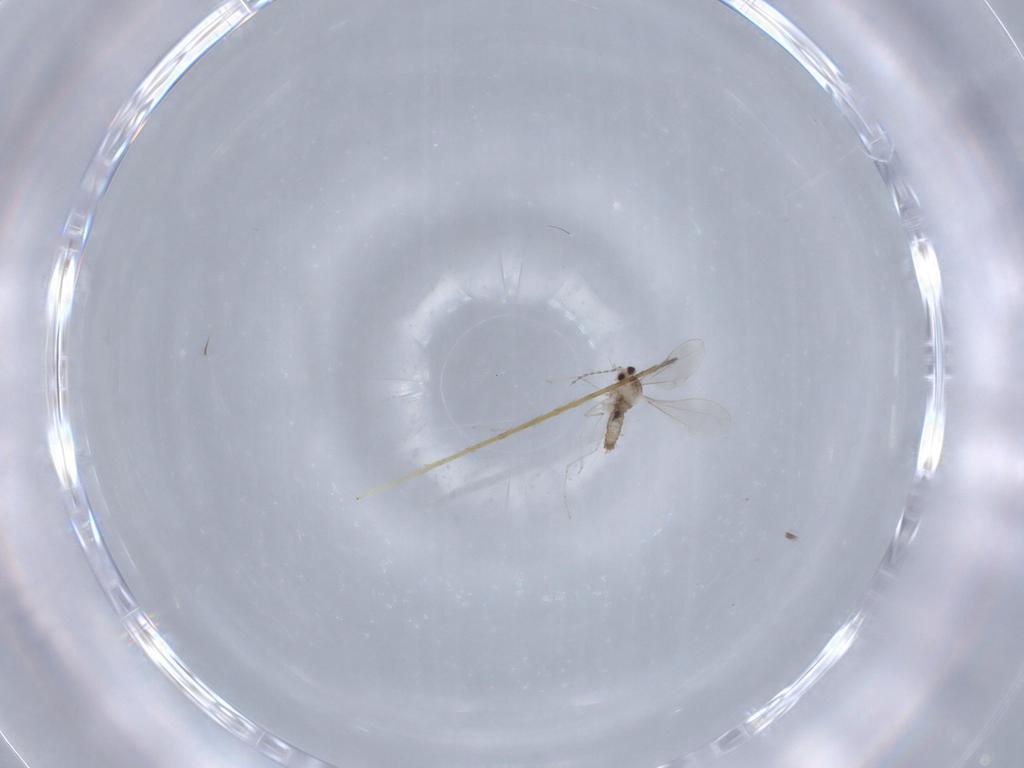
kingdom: Animalia
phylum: Arthropoda
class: Insecta
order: Diptera
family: Cecidomyiidae
